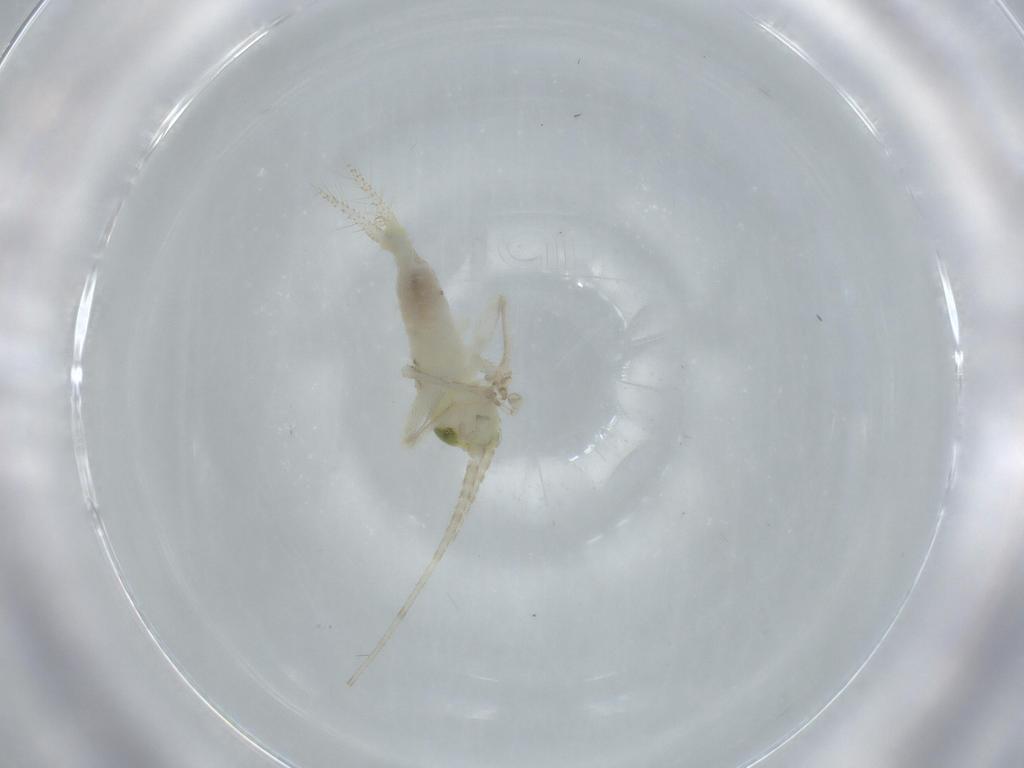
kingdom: Animalia
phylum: Arthropoda
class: Insecta
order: Orthoptera
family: Trigonidiidae
